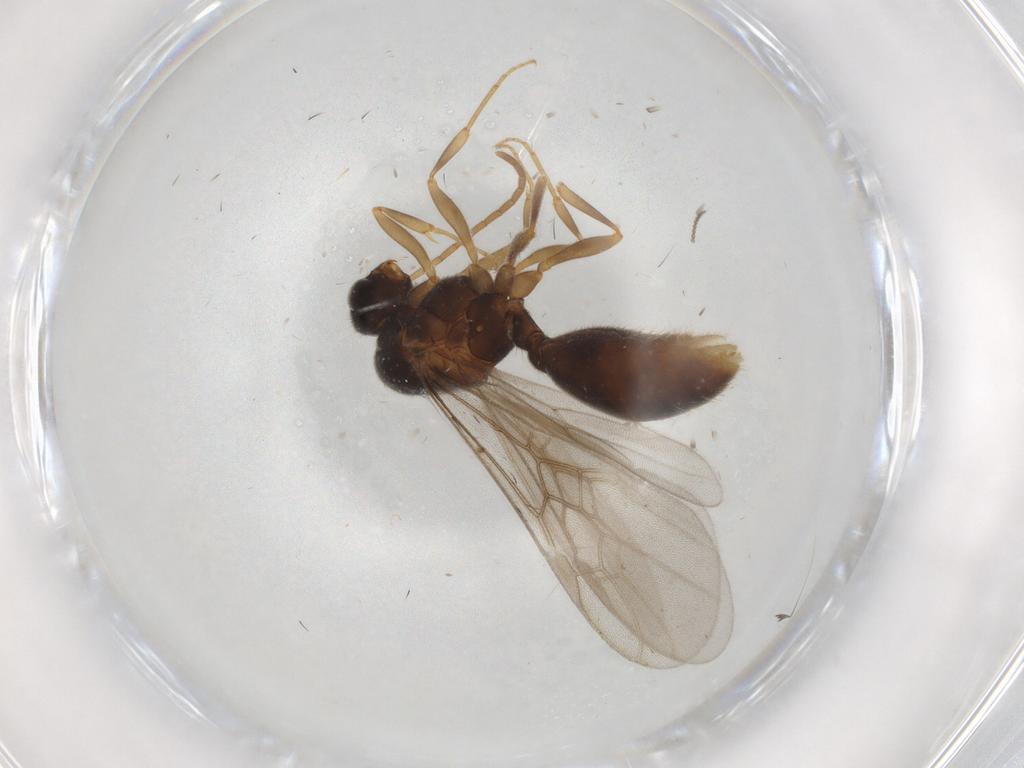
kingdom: Animalia
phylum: Arthropoda
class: Insecta
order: Hymenoptera
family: Formicidae
